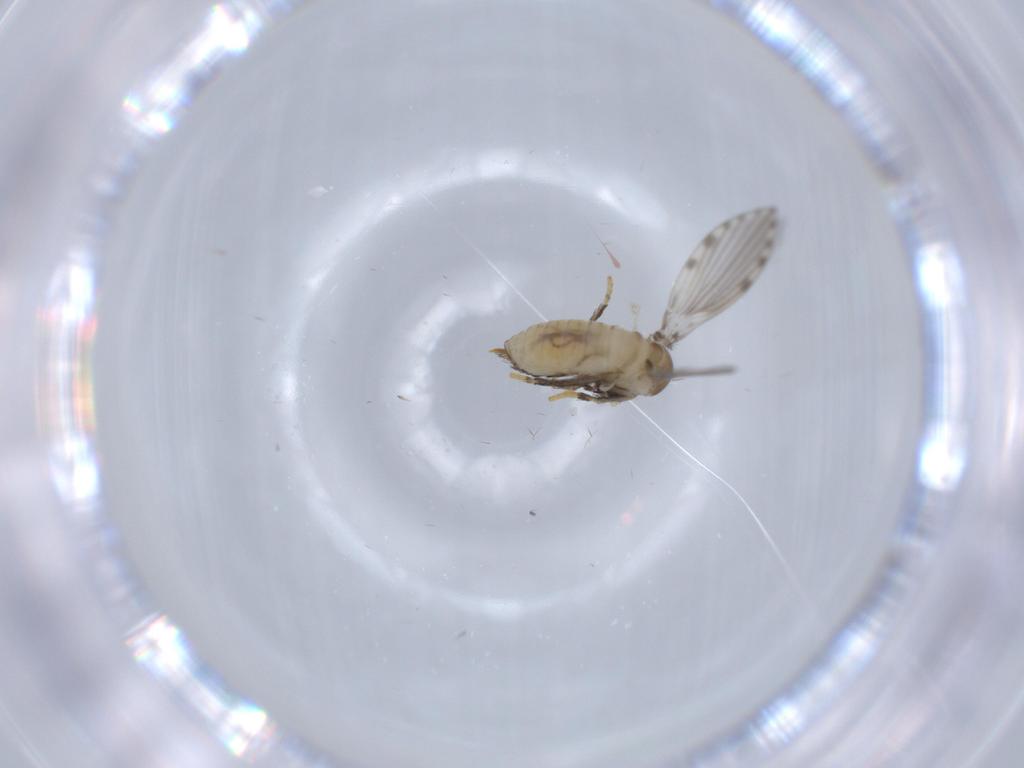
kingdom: Animalia
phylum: Arthropoda
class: Insecta
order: Diptera
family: Psychodidae
